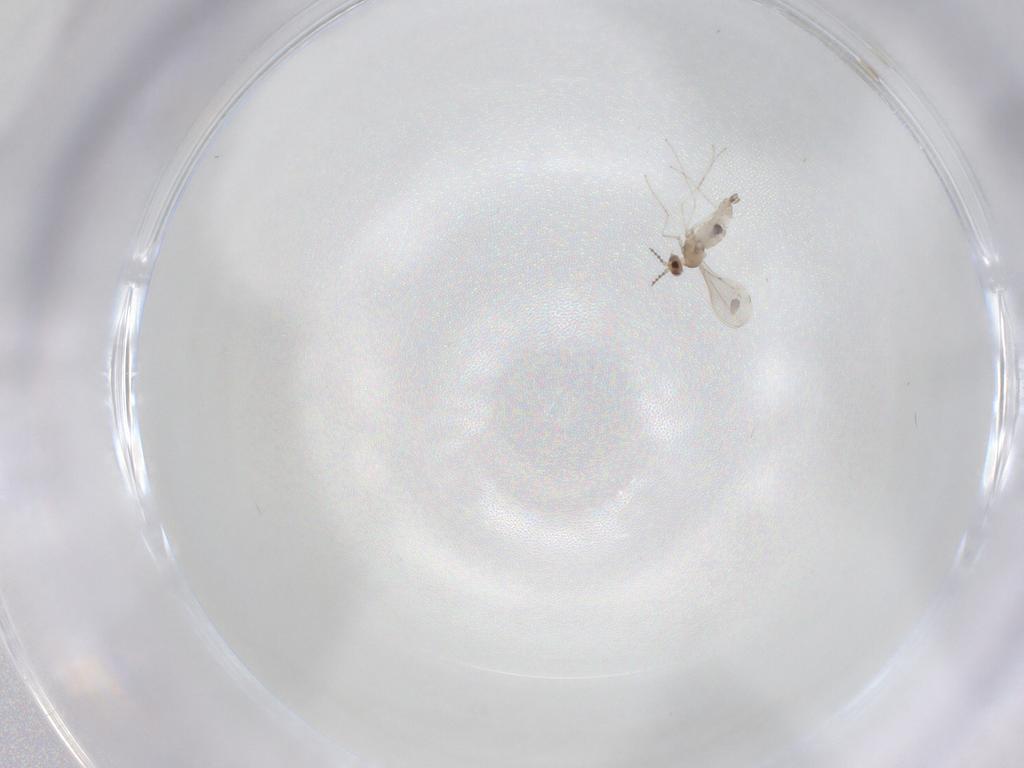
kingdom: Animalia
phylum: Arthropoda
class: Insecta
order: Diptera
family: Cecidomyiidae
